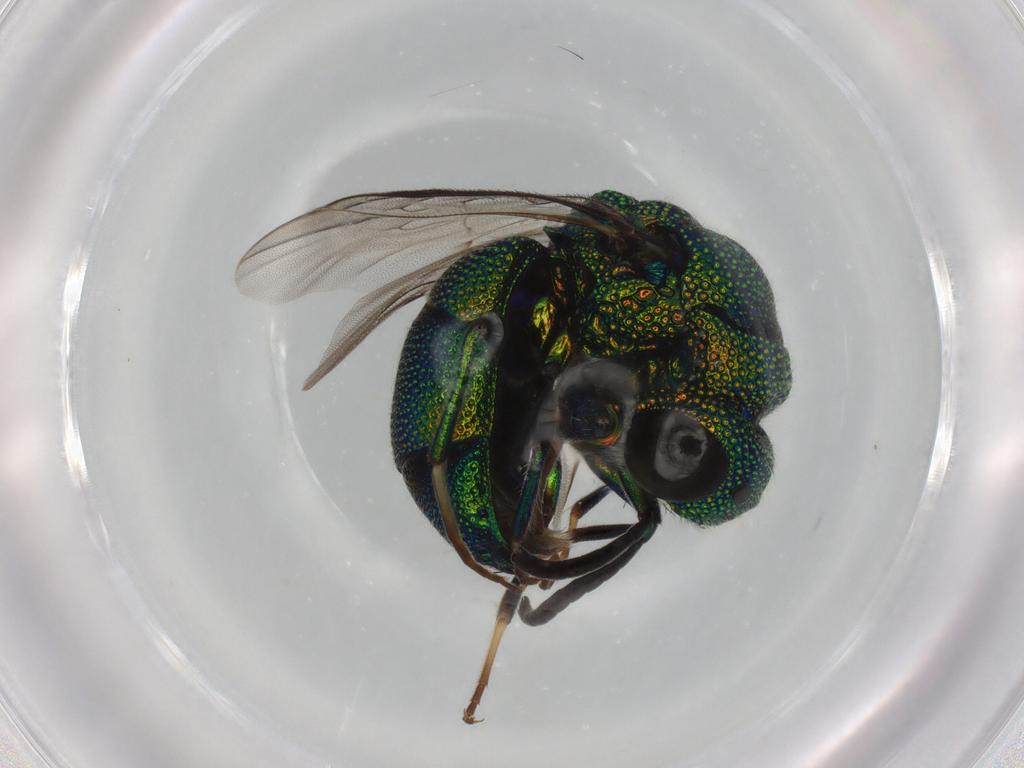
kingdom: Animalia
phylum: Arthropoda
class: Insecta
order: Hymenoptera
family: Chrysididae
